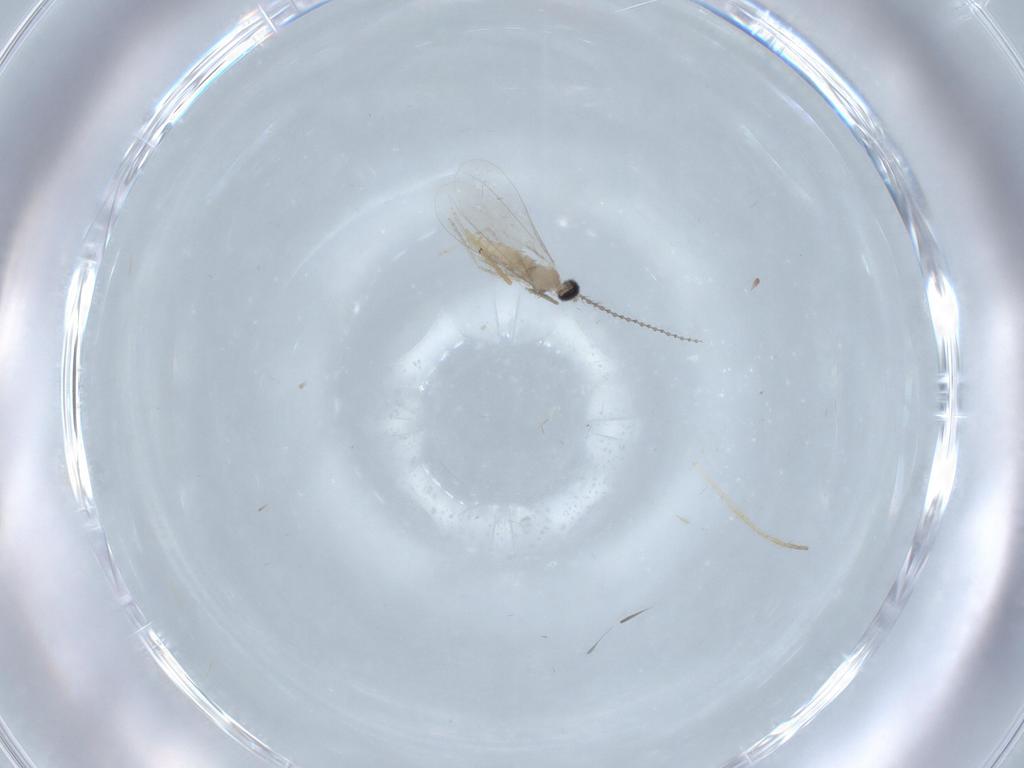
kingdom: Animalia
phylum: Arthropoda
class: Insecta
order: Diptera
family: Chironomidae
